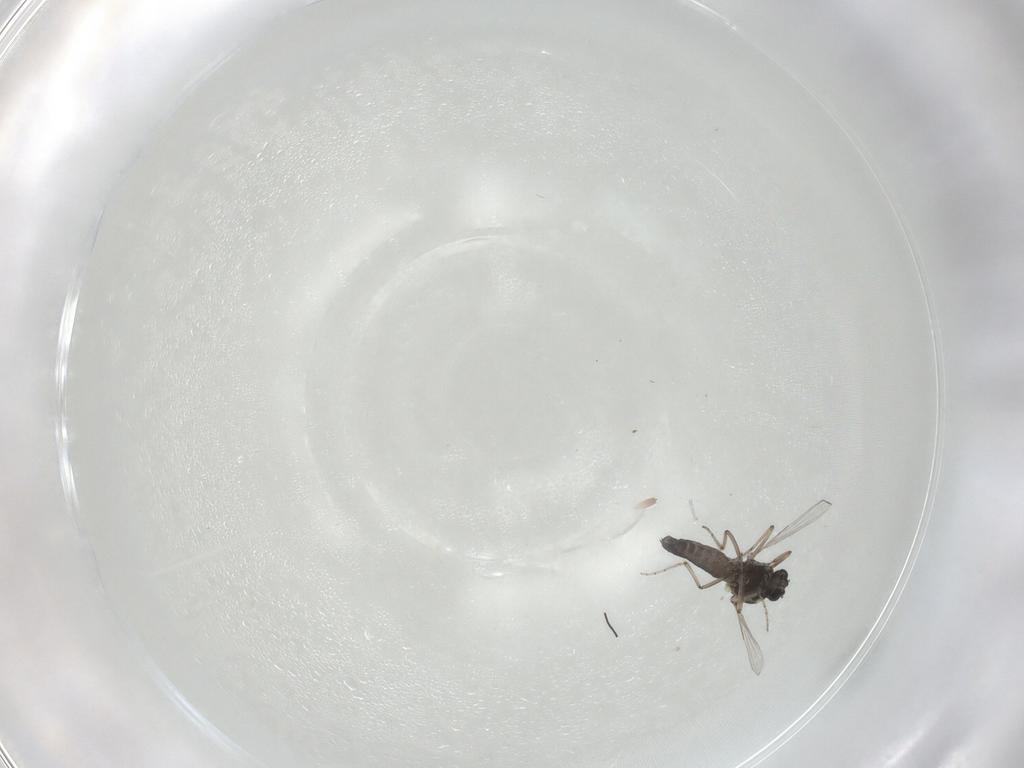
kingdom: Animalia
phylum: Arthropoda
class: Insecta
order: Diptera
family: Ceratopogonidae
